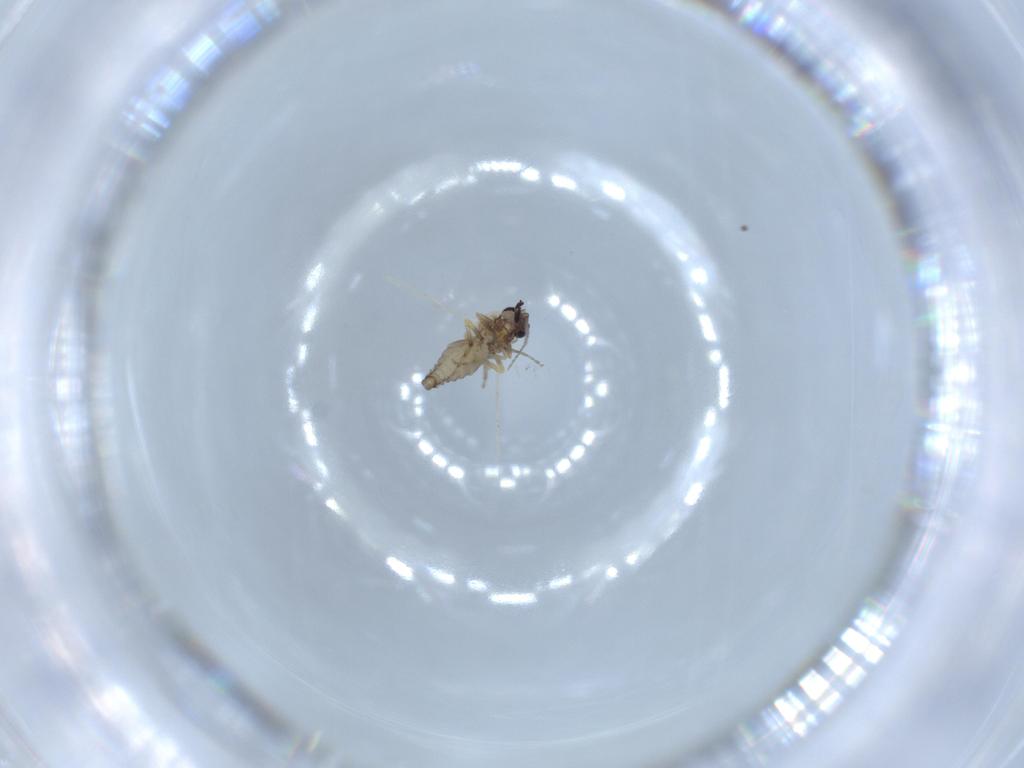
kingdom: Animalia
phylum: Arthropoda
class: Insecta
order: Diptera
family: Ceratopogonidae
